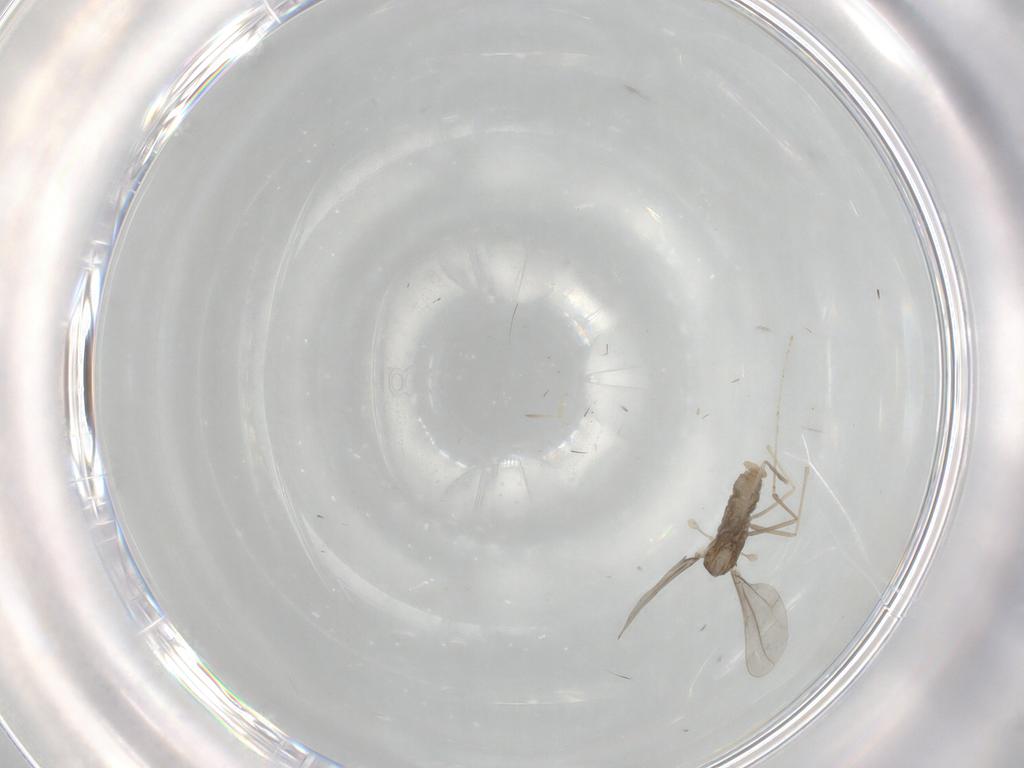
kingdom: Animalia
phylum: Arthropoda
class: Insecta
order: Diptera
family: Cecidomyiidae
